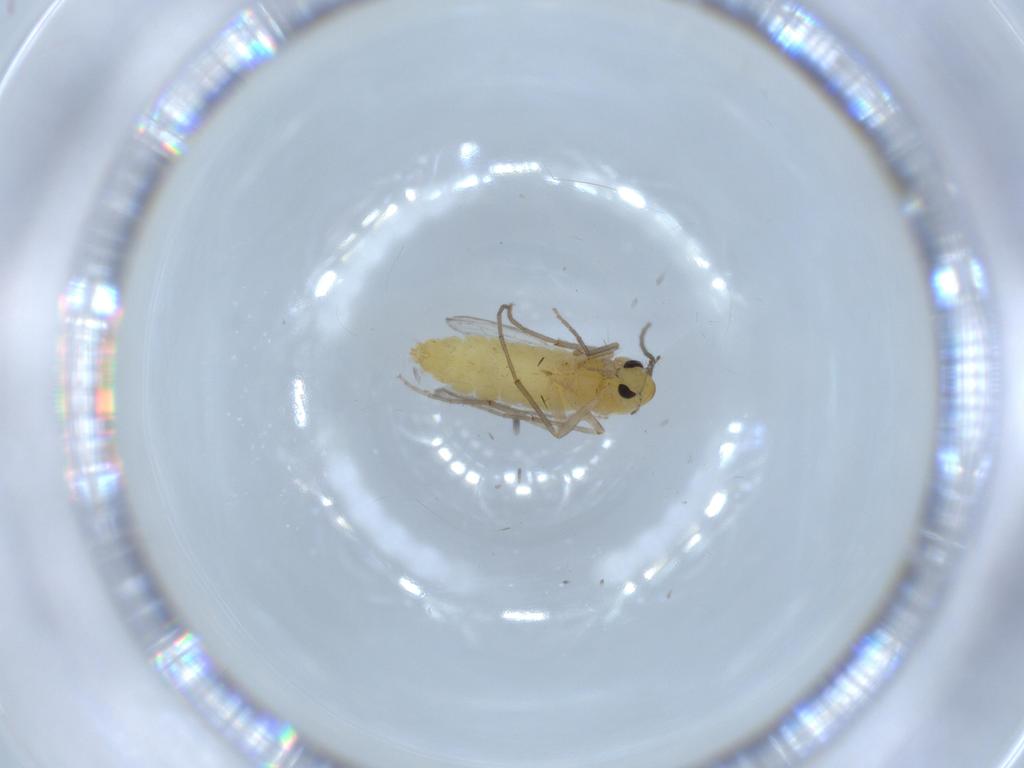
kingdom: Animalia
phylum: Arthropoda
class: Insecta
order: Diptera
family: Chironomidae
